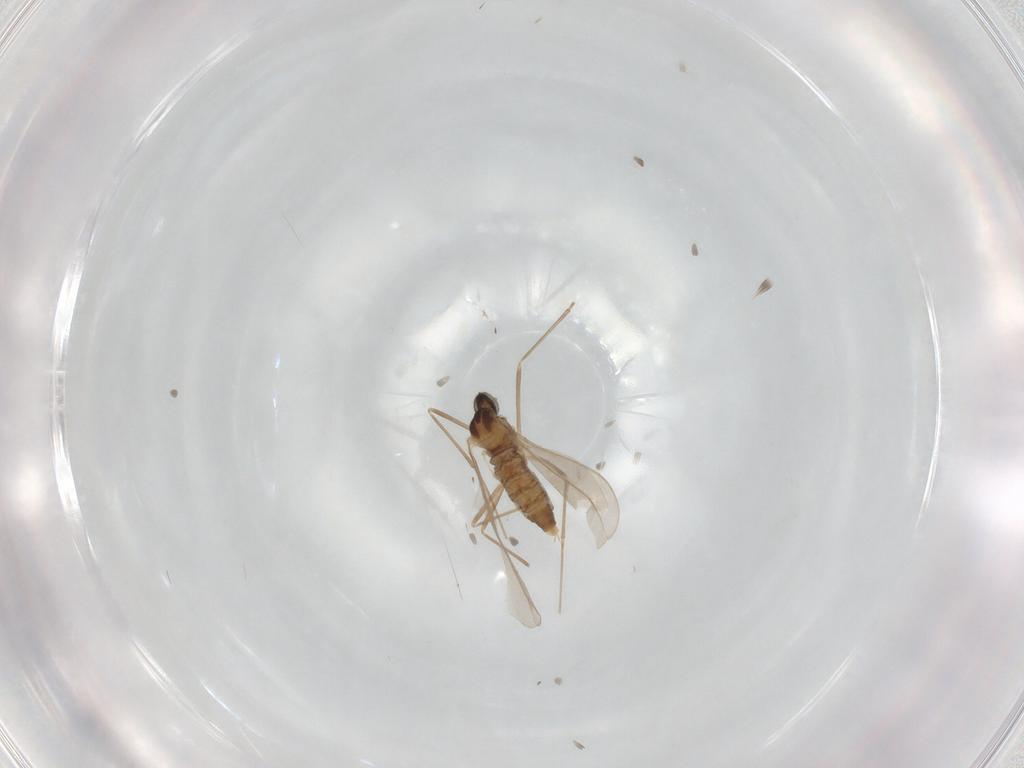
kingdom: Animalia
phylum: Arthropoda
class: Insecta
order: Diptera
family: Cecidomyiidae
